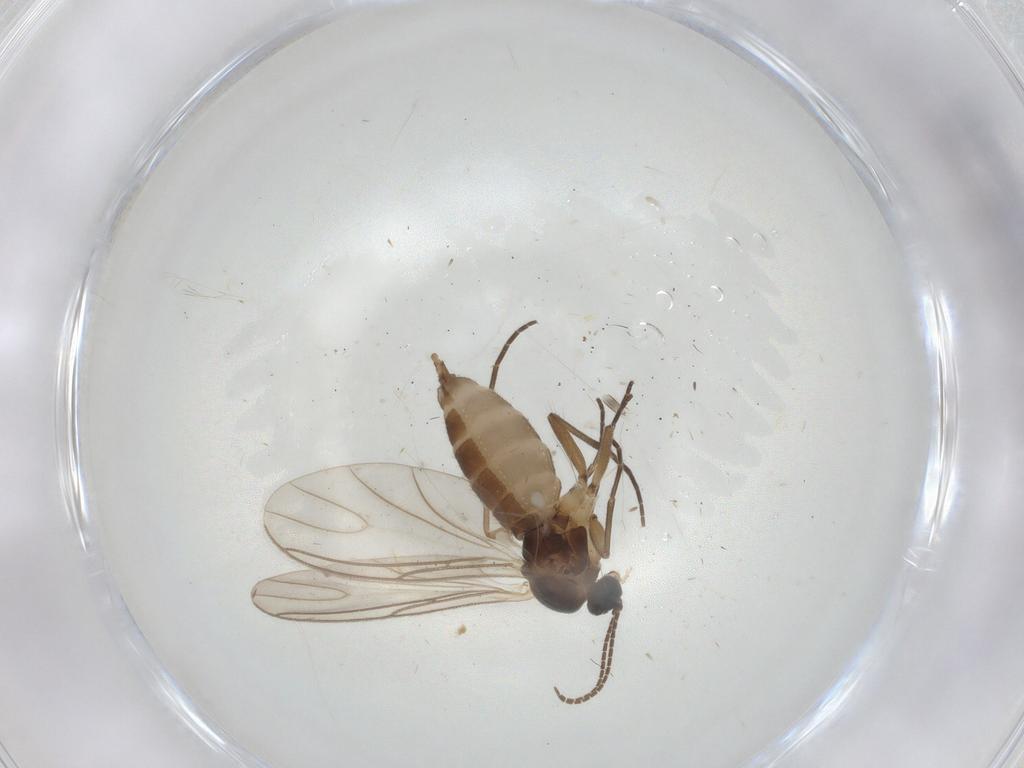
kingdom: Animalia
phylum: Arthropoda
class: Insecta
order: Diptera
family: Sciaridae
